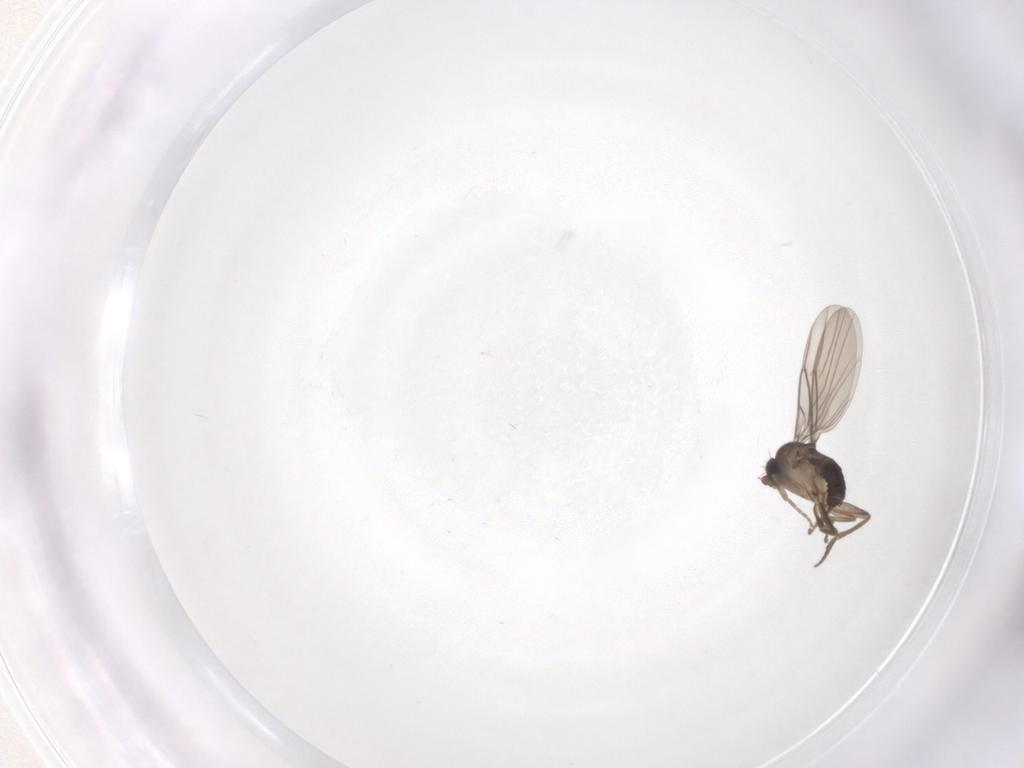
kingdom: Animalia
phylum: Arthropoda
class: Insecta
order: Diptera
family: Phoridae
